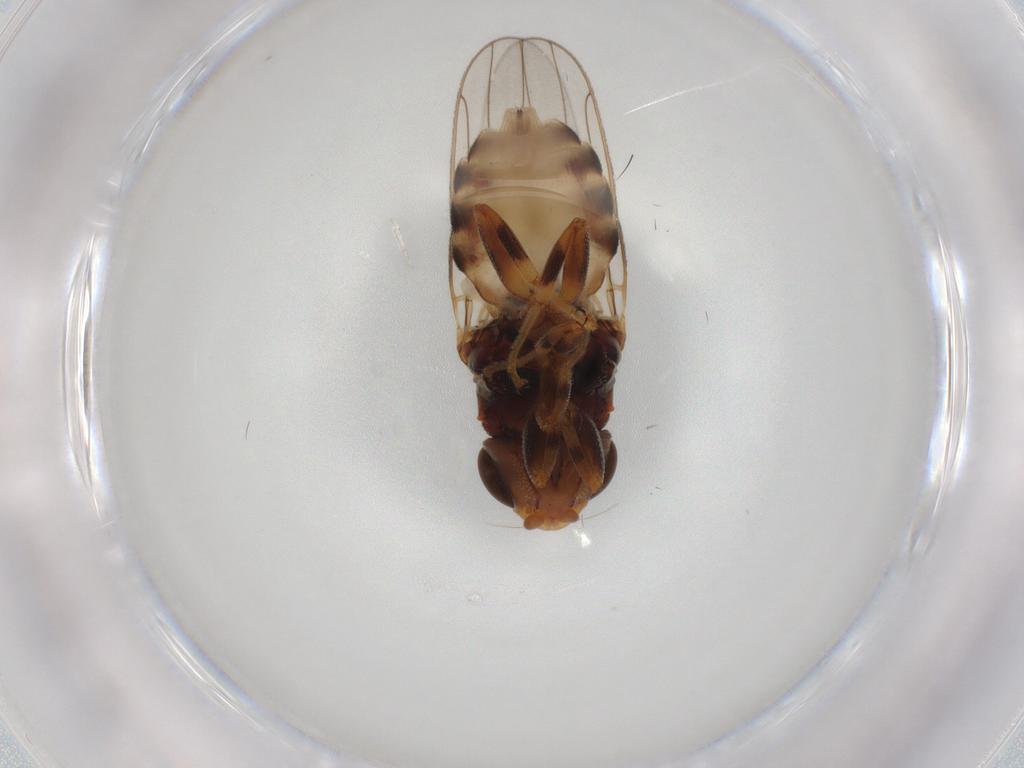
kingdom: Animalia
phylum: Arthropoda
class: Insecta
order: Diptera
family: Chloropidae
